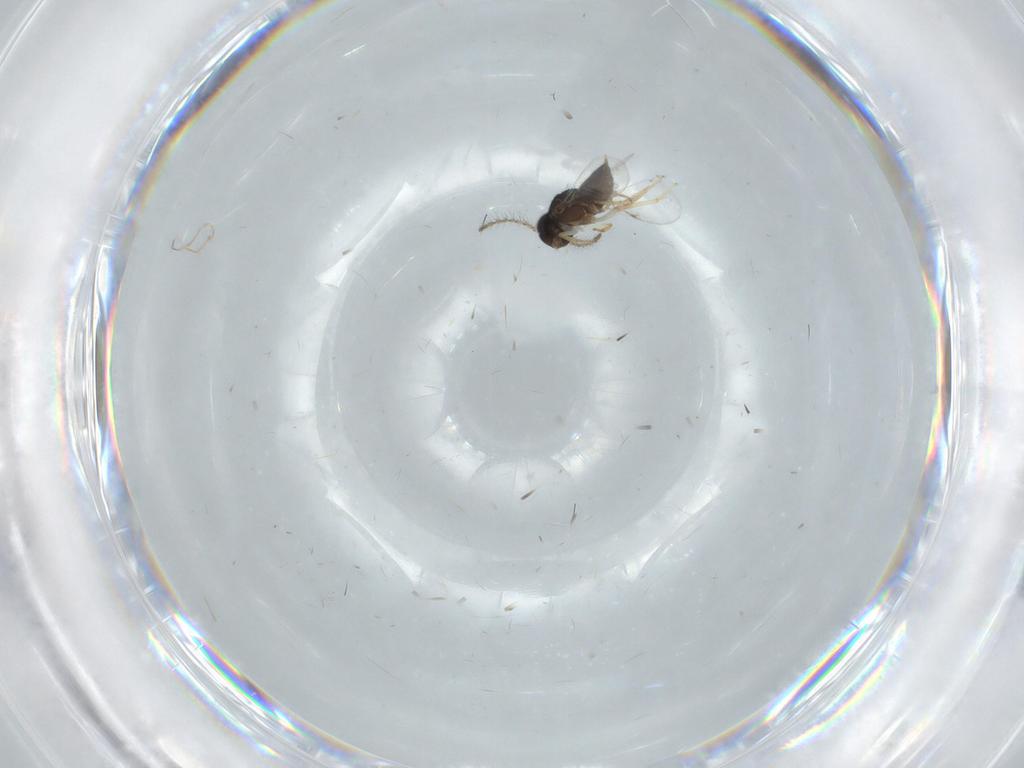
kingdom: Animalia
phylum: Arthropoda
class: Insecta
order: Hymenoptera
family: Encyrtidae
